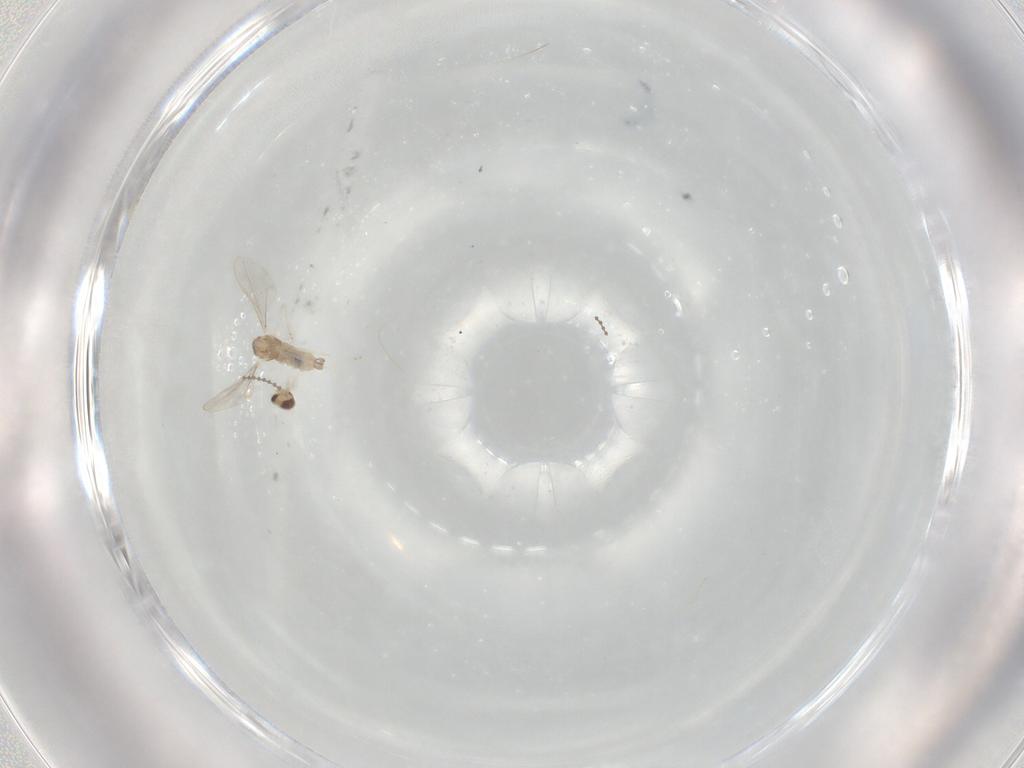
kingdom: Animalia
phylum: Arthropoda
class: Insecta
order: Diptera
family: Cecidomyiidae
